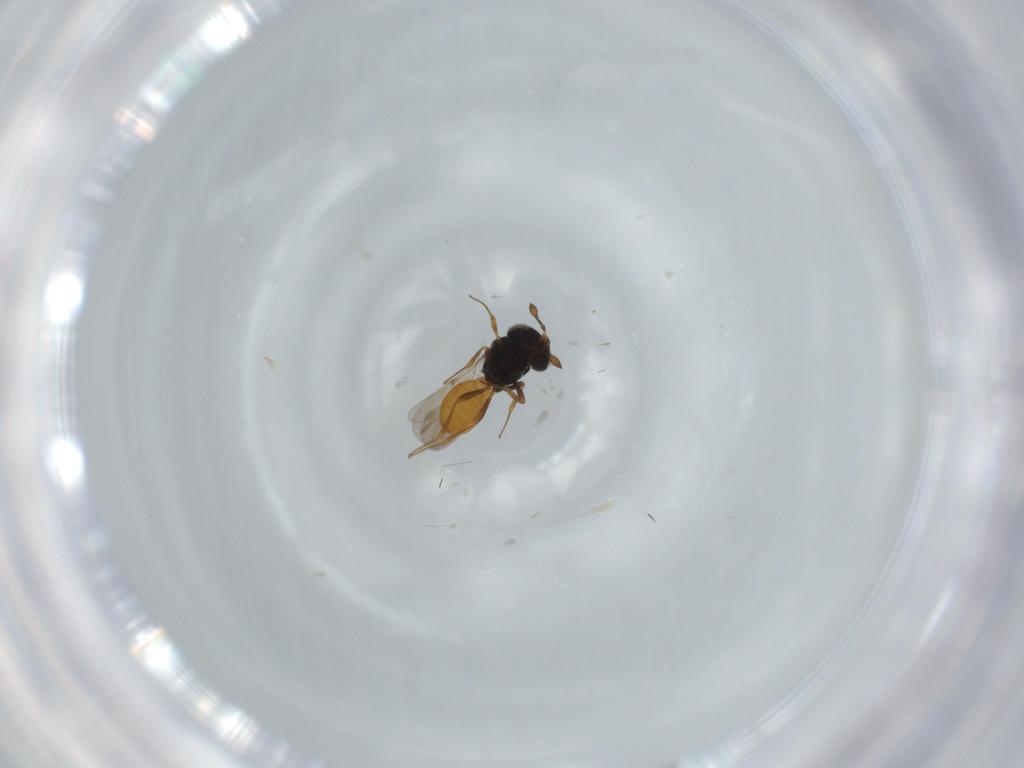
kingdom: Animalia
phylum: Arthropoda
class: Insecta
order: Hymenoptera
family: Scelionidae
